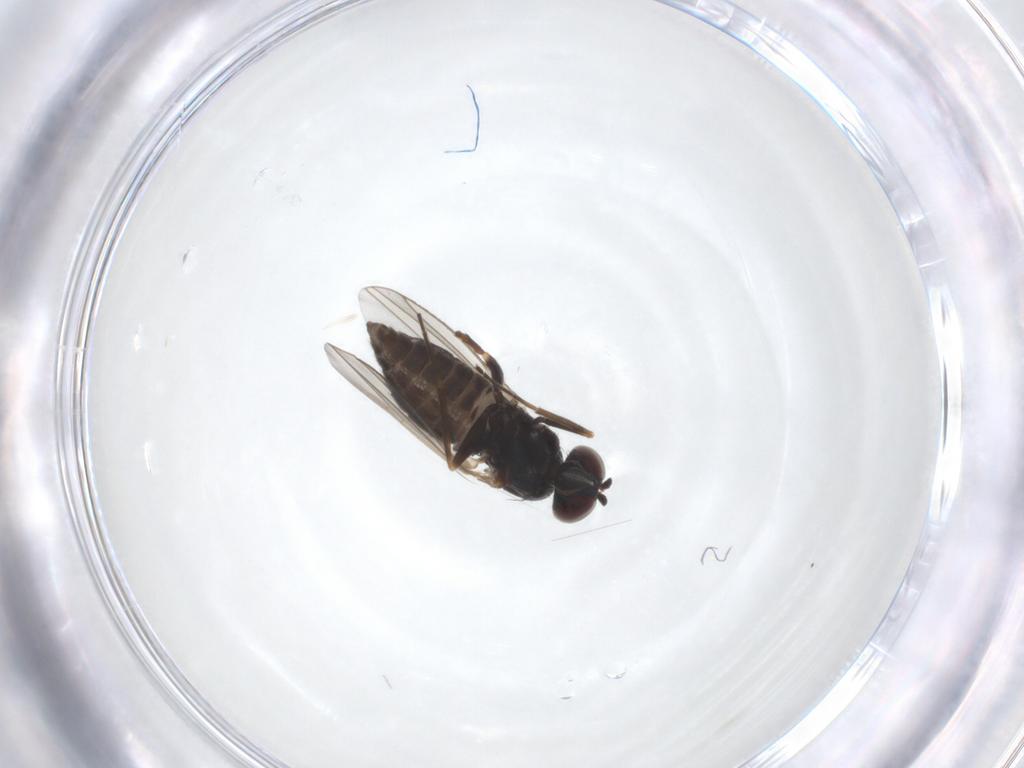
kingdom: Animalia
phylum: Arthropoda
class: Insecta
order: Diptera
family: Dolichopodidae
